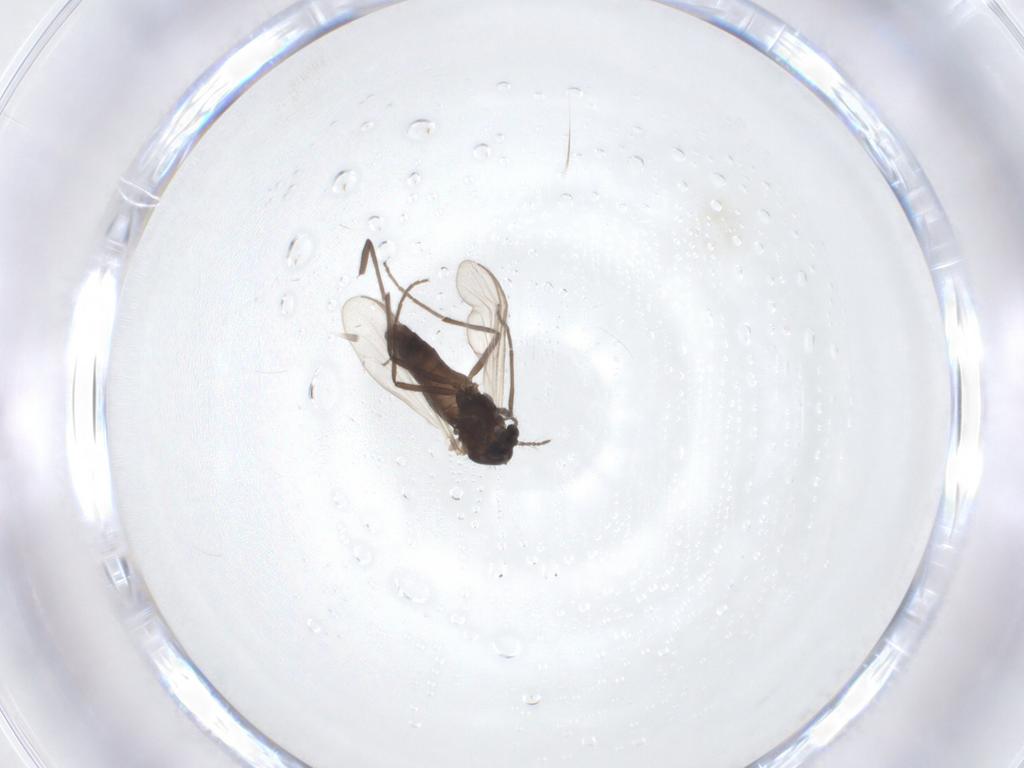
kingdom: Animalia
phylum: Arthropoda
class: Insecta
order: Diptera
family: Chironomidae
